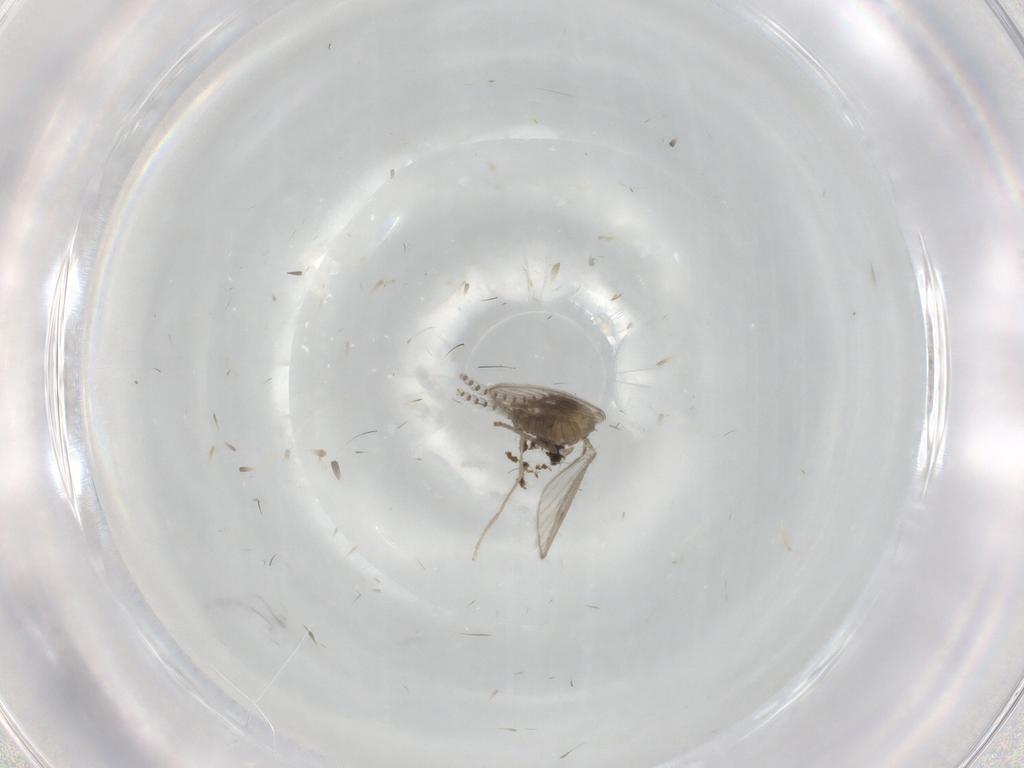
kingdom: Animalia
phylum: Arthropoda
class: Insecta
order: Diptera
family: Psychodidae
